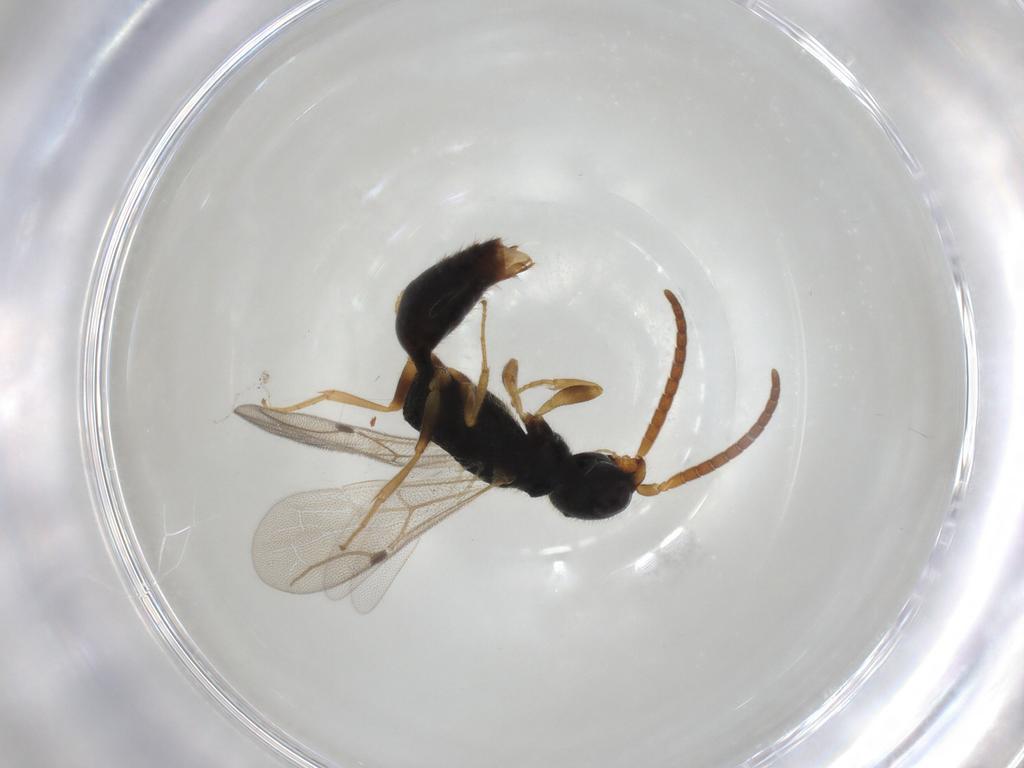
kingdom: Animalia
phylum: Arthropoda
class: Insecta
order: Hymenoptera
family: Bethylidae
